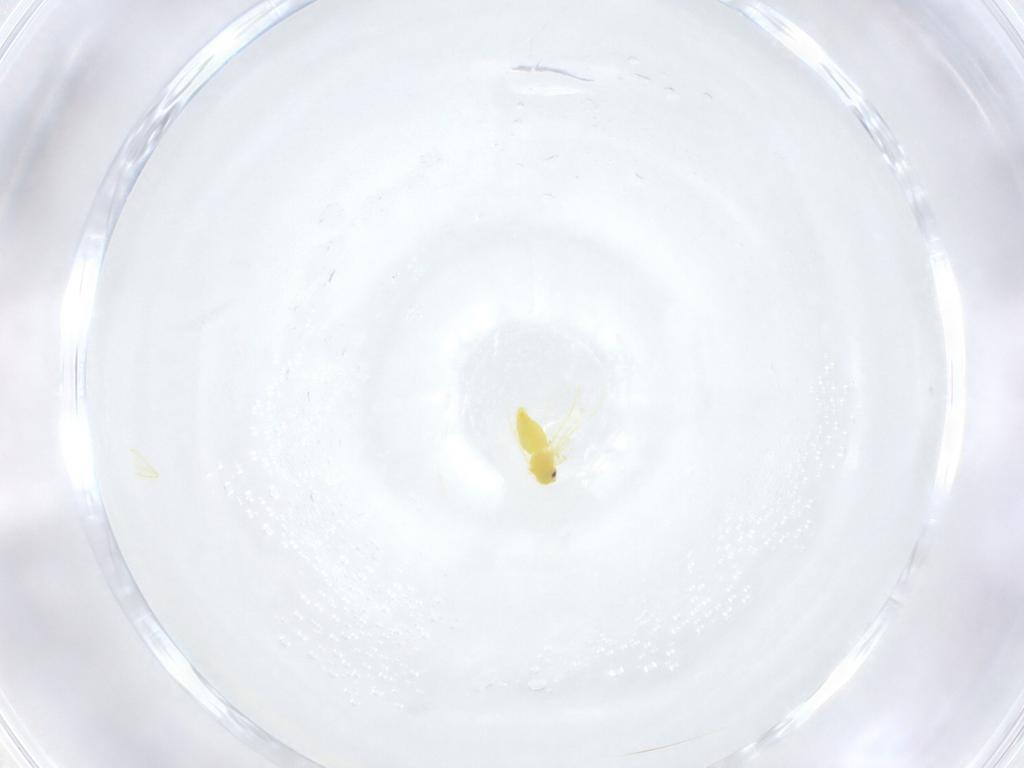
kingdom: Animalia
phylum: Arthropoda
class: Insecta
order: Hemiptera
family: Aleyrodidae
